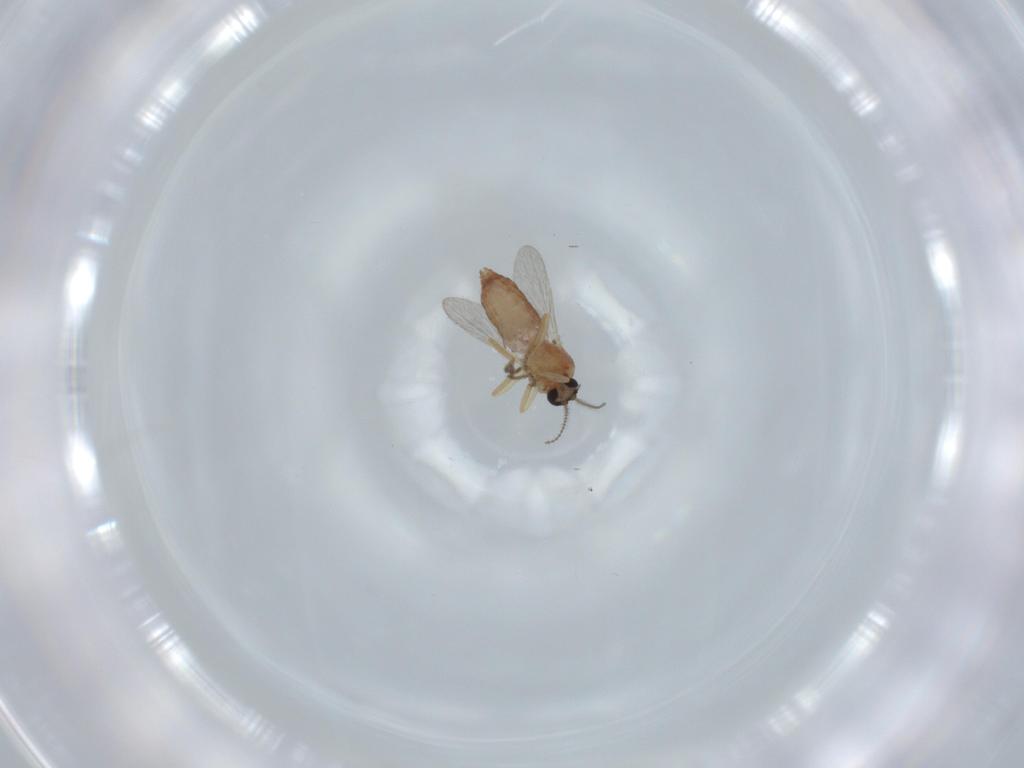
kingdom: Animalia
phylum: Arthropoda
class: Insecta
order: Diptera
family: Ceratopogonidae
